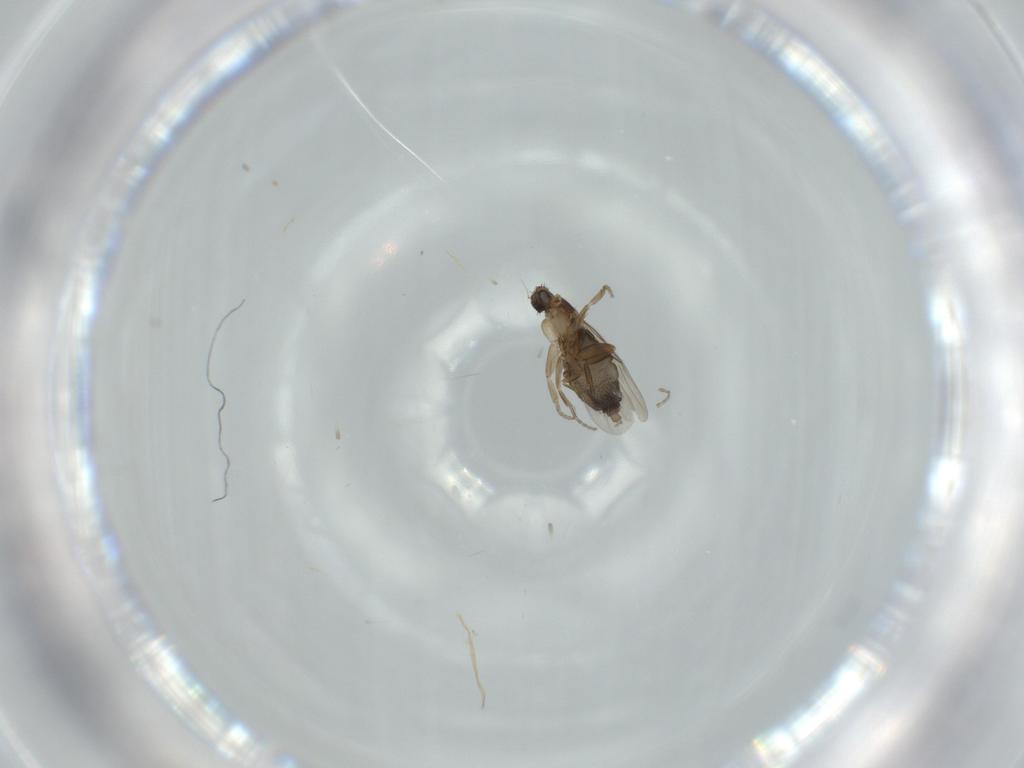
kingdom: Animalia
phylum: Arthropoda
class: Insecta
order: Diptera
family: Phoridae
